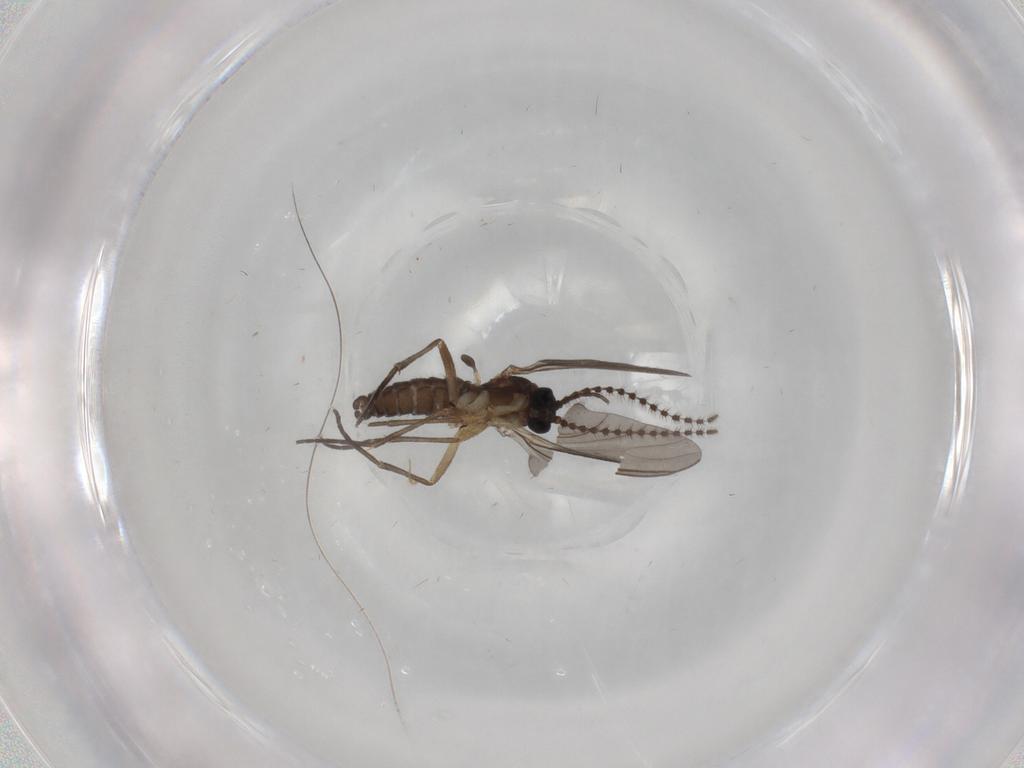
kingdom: Animalia
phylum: Arthropoda
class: Insecta
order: Diptera
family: Sciaridae
